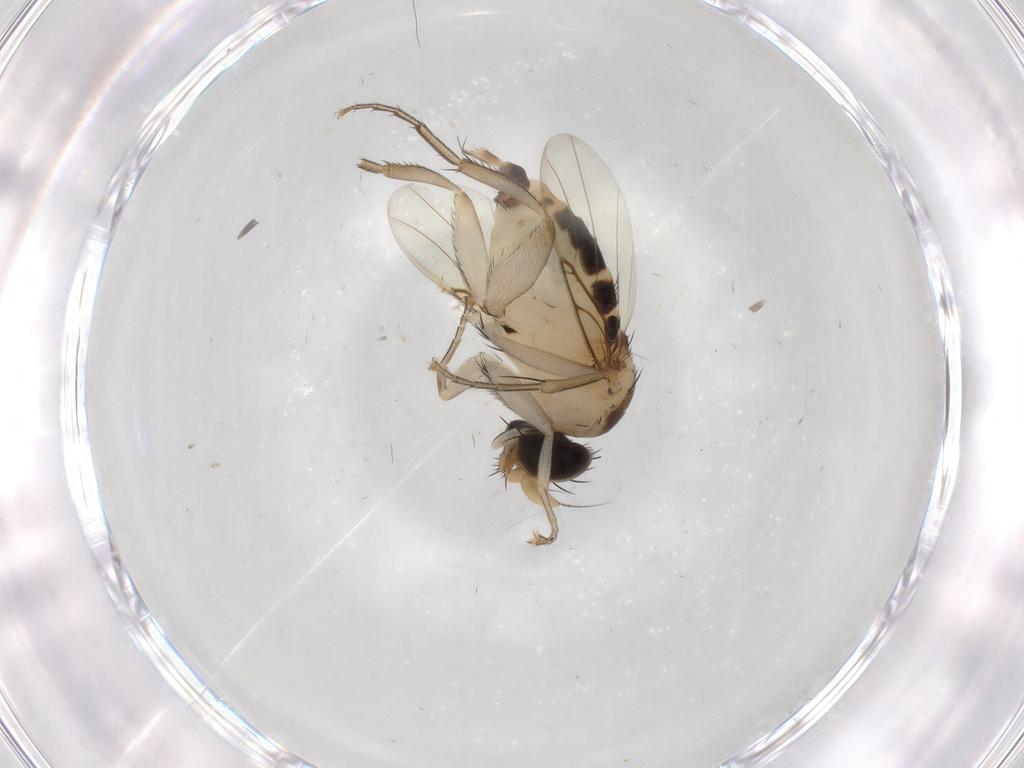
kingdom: Animalia
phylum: Arthropoda
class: Insecta
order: Diptera
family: Phoridae
